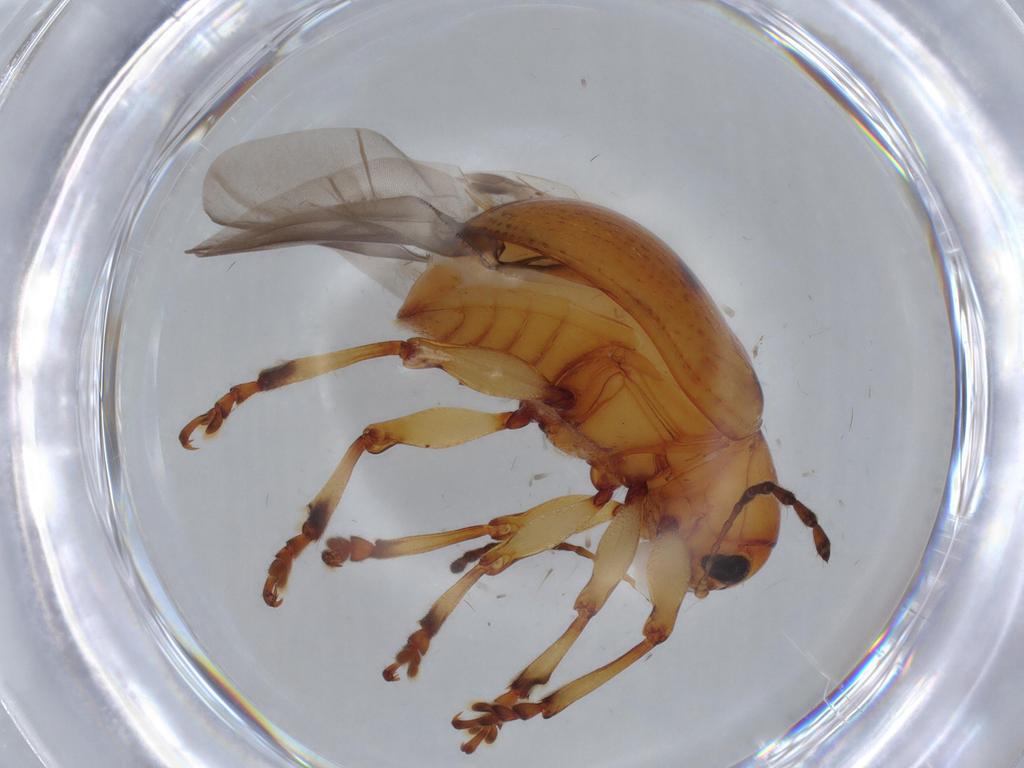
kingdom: Animalia
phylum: Arthropoda
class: Insecta
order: Coleoptera
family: Chrysomelidae
